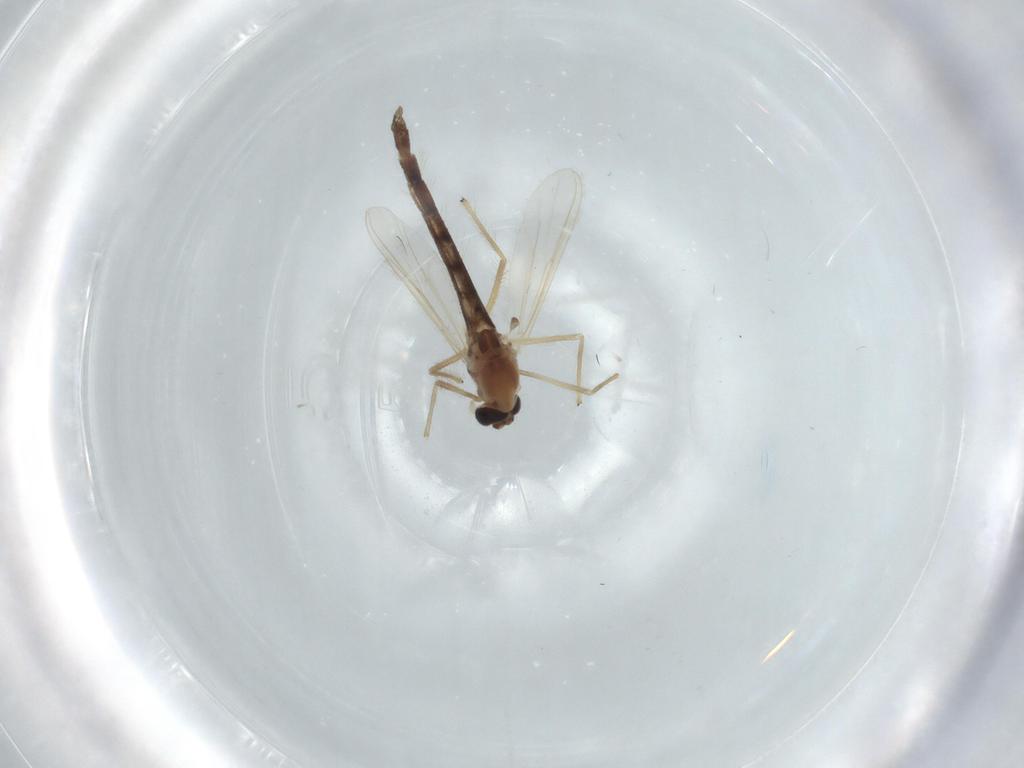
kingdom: Animalia
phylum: Arthropoda
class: Insecta
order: Diptera
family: Chironomidae
